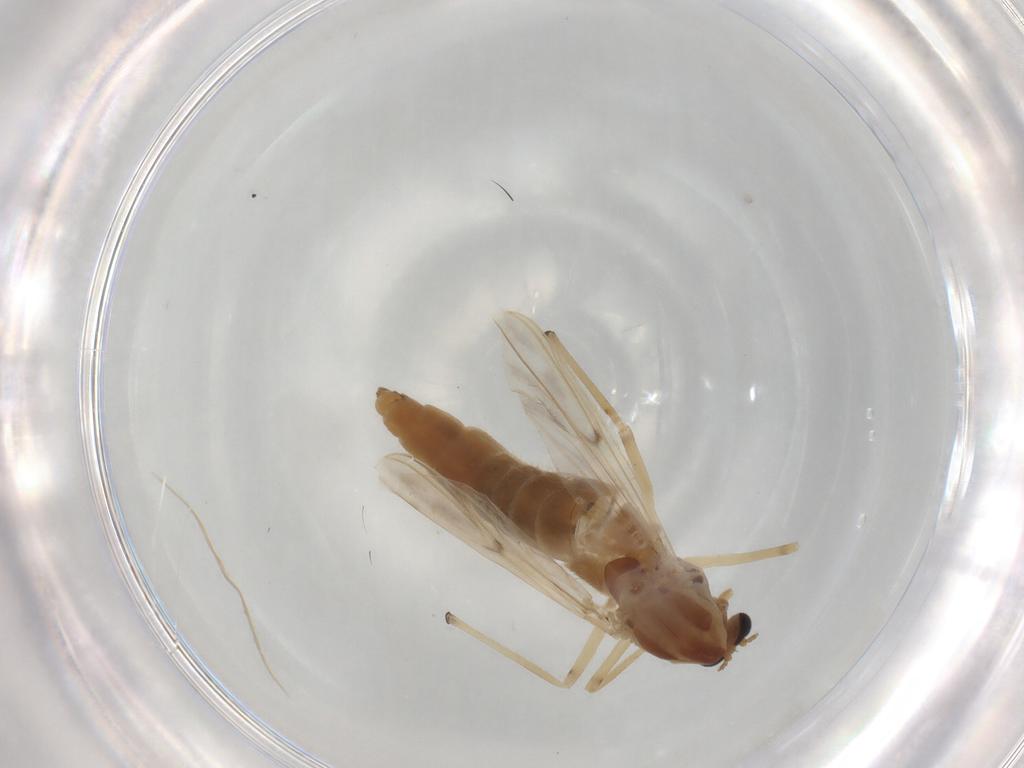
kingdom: Animalia
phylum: Arthropoda
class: Insecta
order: Diptera
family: Chironomidae
